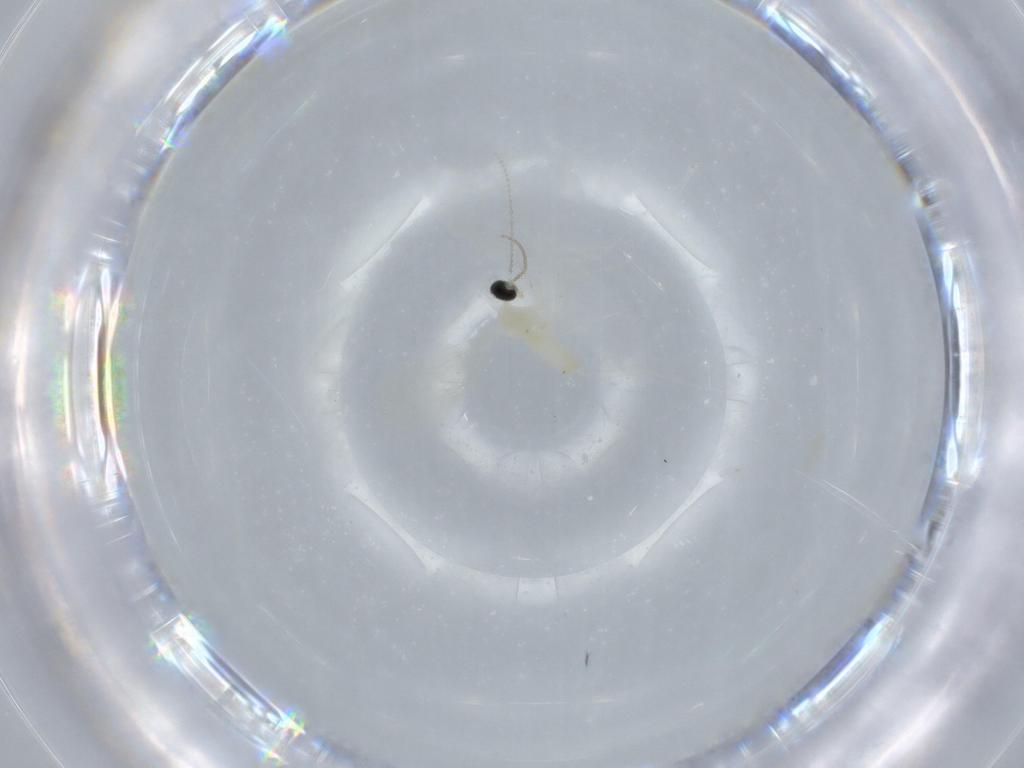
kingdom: Animalia
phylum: Arthropoda
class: Insecta
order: Diptera
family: Cecidomyiidae
